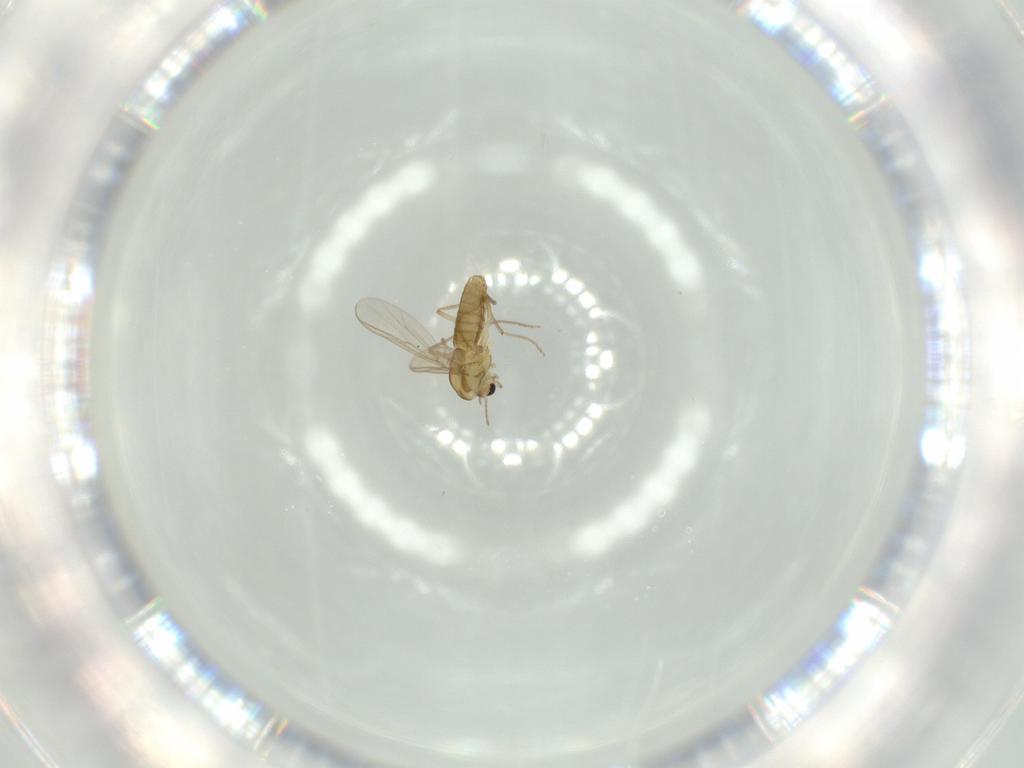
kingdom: Animalia
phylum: Arthropoda
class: Insecta
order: Diptera
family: Chironomidae
